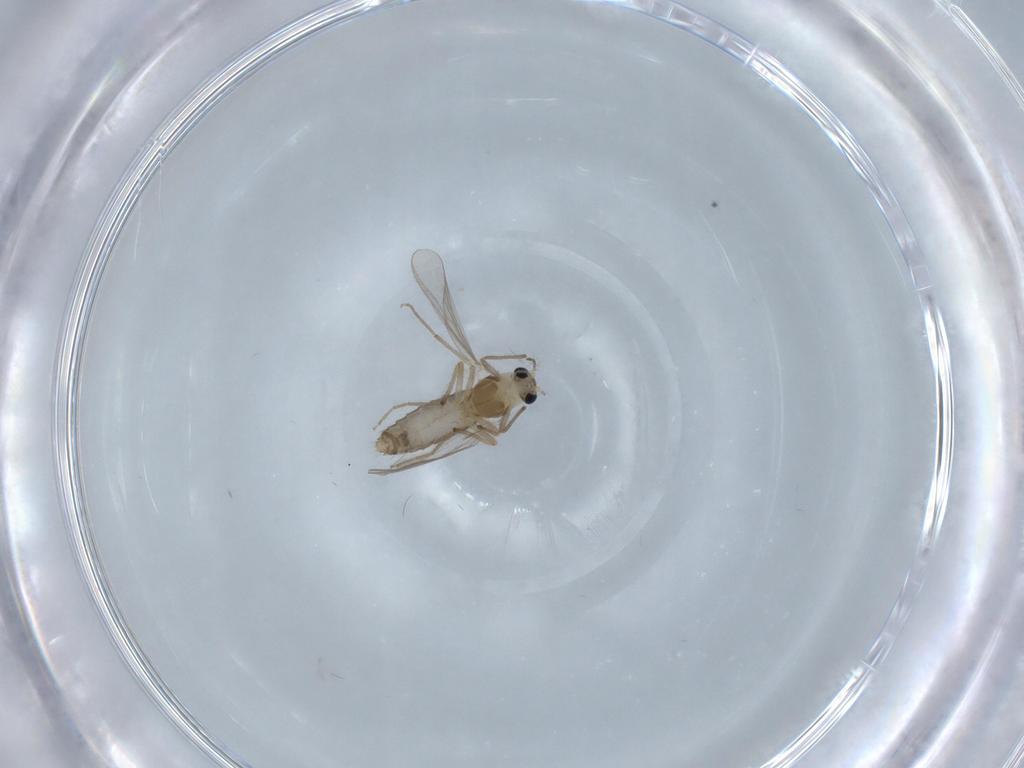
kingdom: Animalia
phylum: Arthropoda
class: Insecta
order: Diptera
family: Chironomidae
